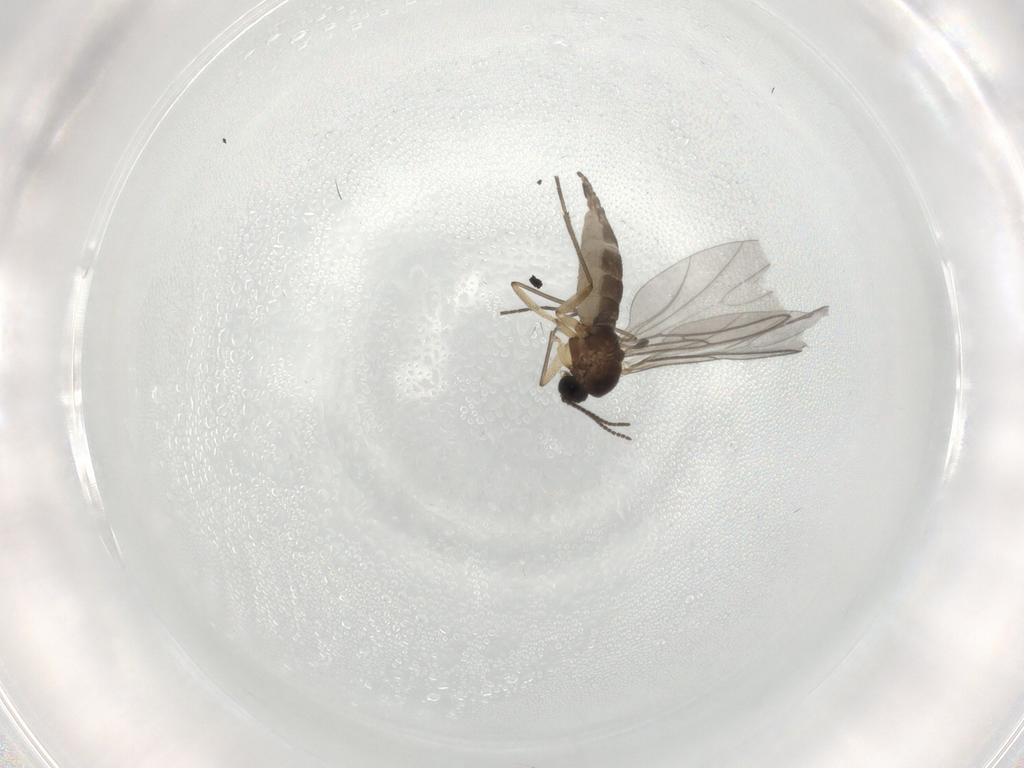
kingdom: Animalia
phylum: Arthropoda
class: Insecta
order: Diptera
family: Sciaridae
